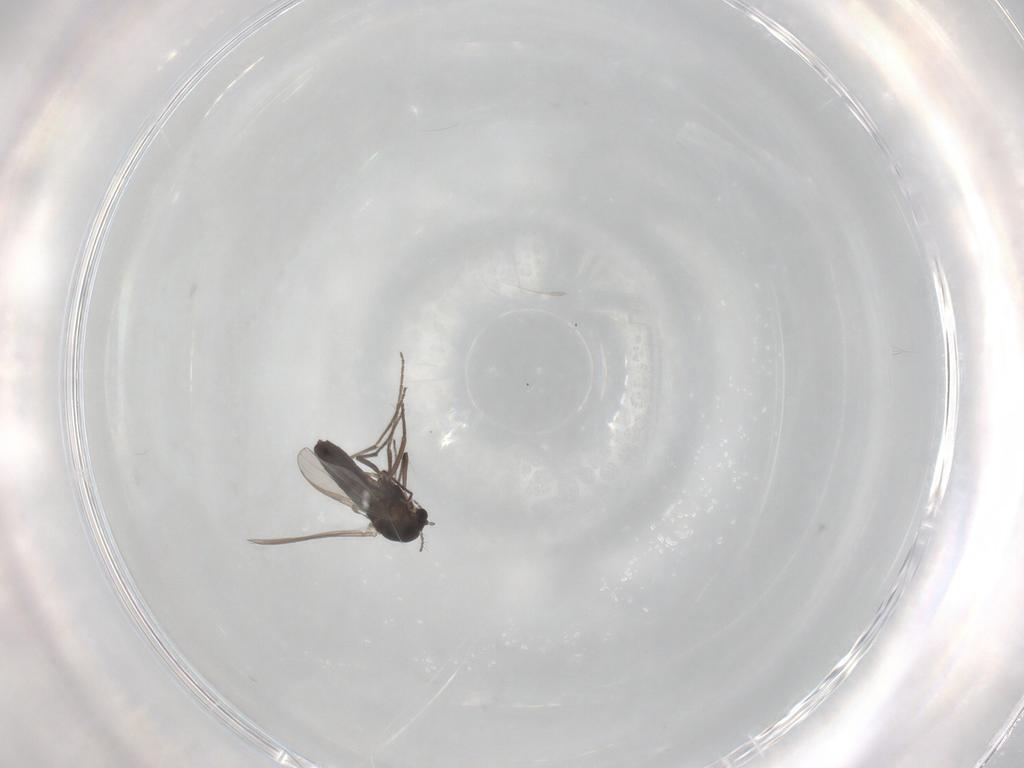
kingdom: Animalia
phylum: Arthropoda
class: Insecta
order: Diptera
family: Chironomidae
